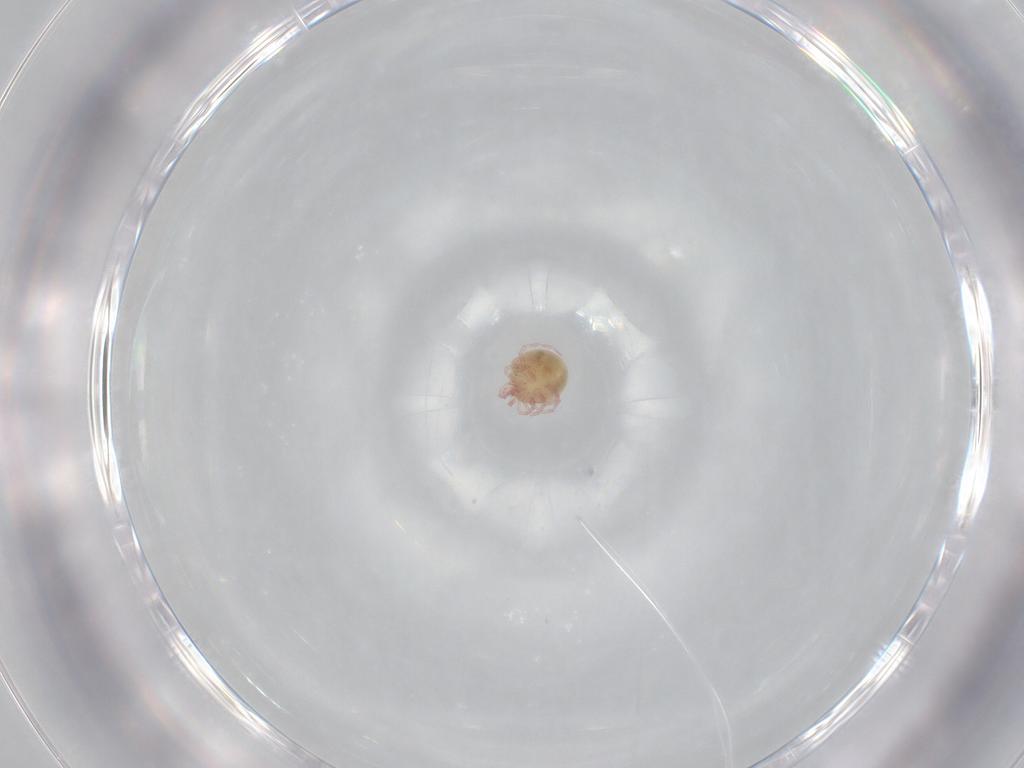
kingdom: Animalia
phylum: Arthropoda
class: Arachnida
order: Trombidiformes
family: Pionidae
